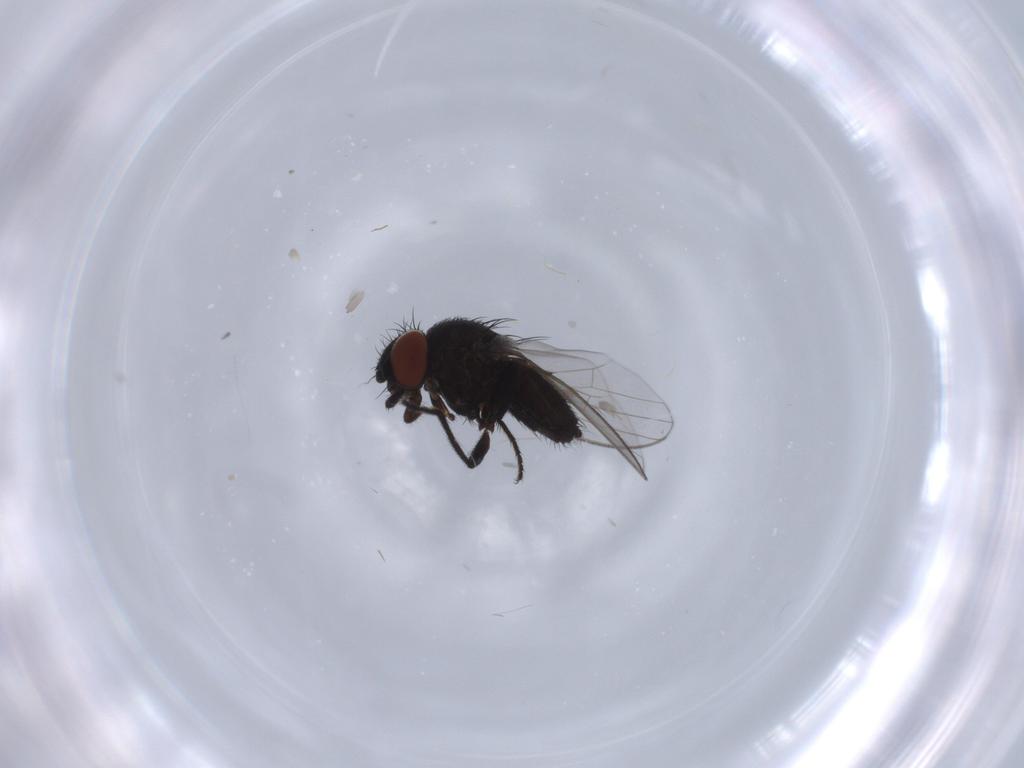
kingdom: Animalia
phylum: Arthropoda
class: Insecta
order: Diptera
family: Milichiidae
